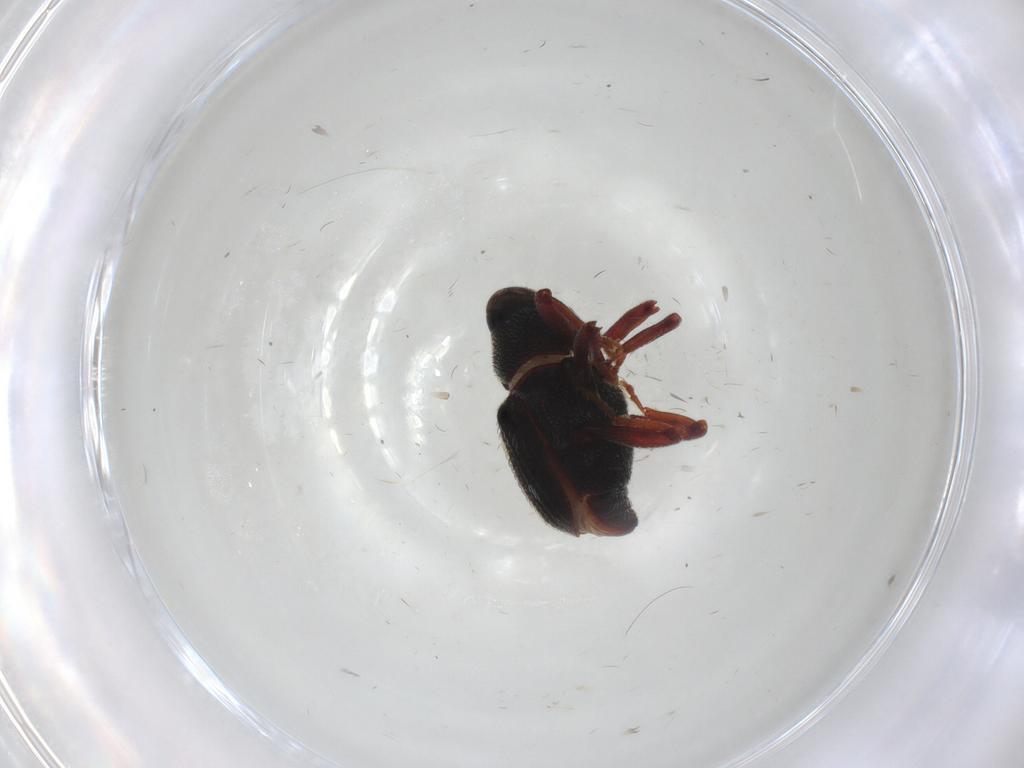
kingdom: Animalia
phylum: Arthropoda
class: Insecta
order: Coleoptera
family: Curculionidae
